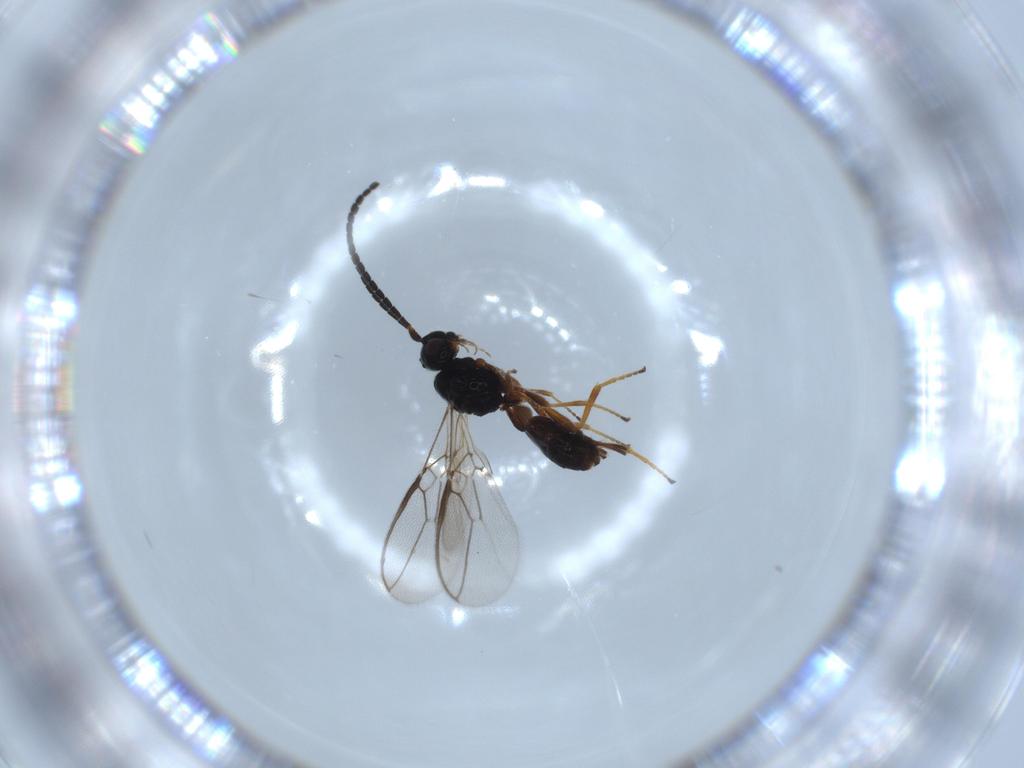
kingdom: Animalia
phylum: Arthropoda
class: Insecta
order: Hymenoptera
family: Braconidae
